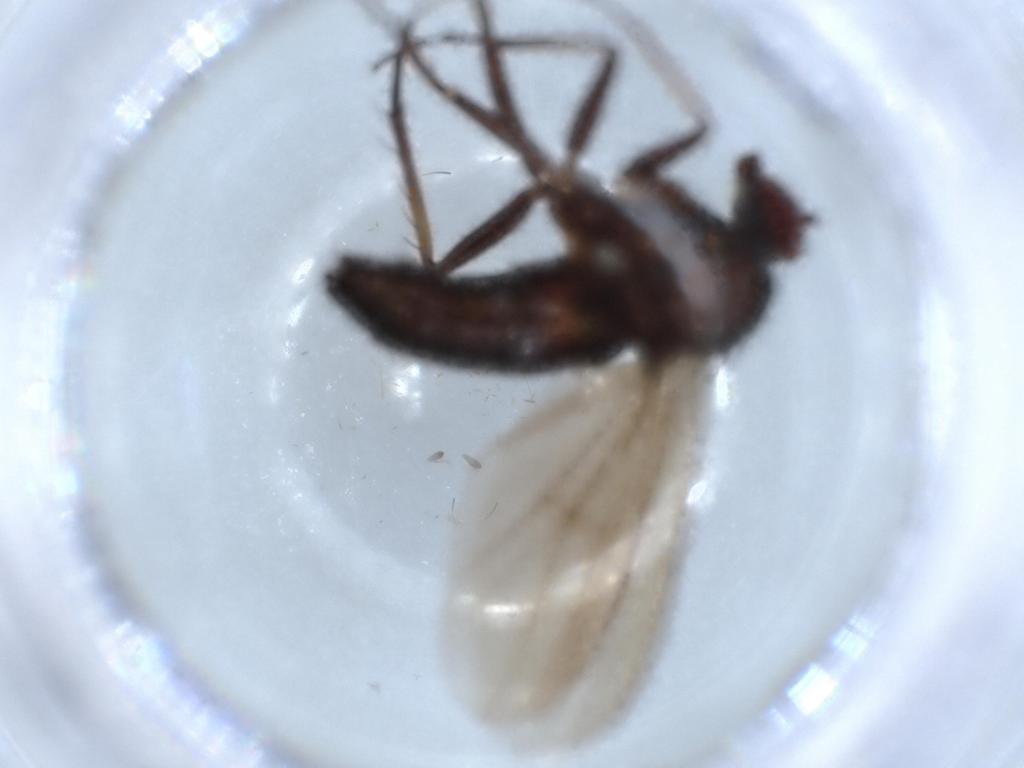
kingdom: Animalia
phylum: Arthropoda
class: Insecta
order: Diptera
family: Dolichopodidae
